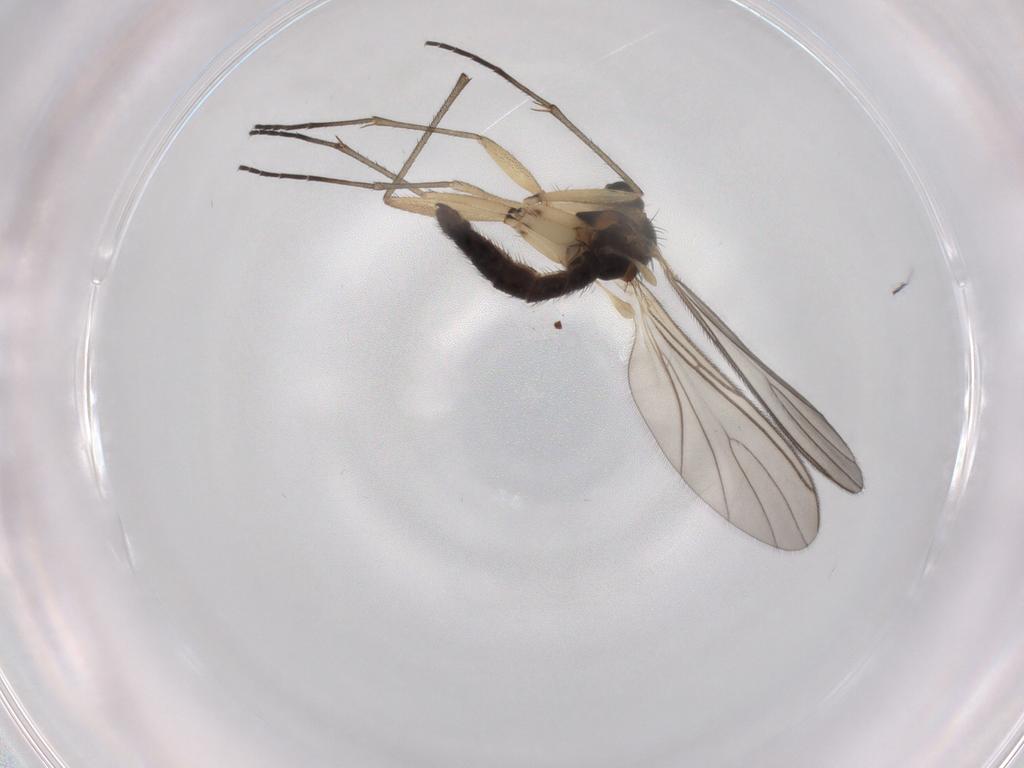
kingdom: Animalia
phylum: Arthropoda
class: Insecta
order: Diptera
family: Sciaridae
